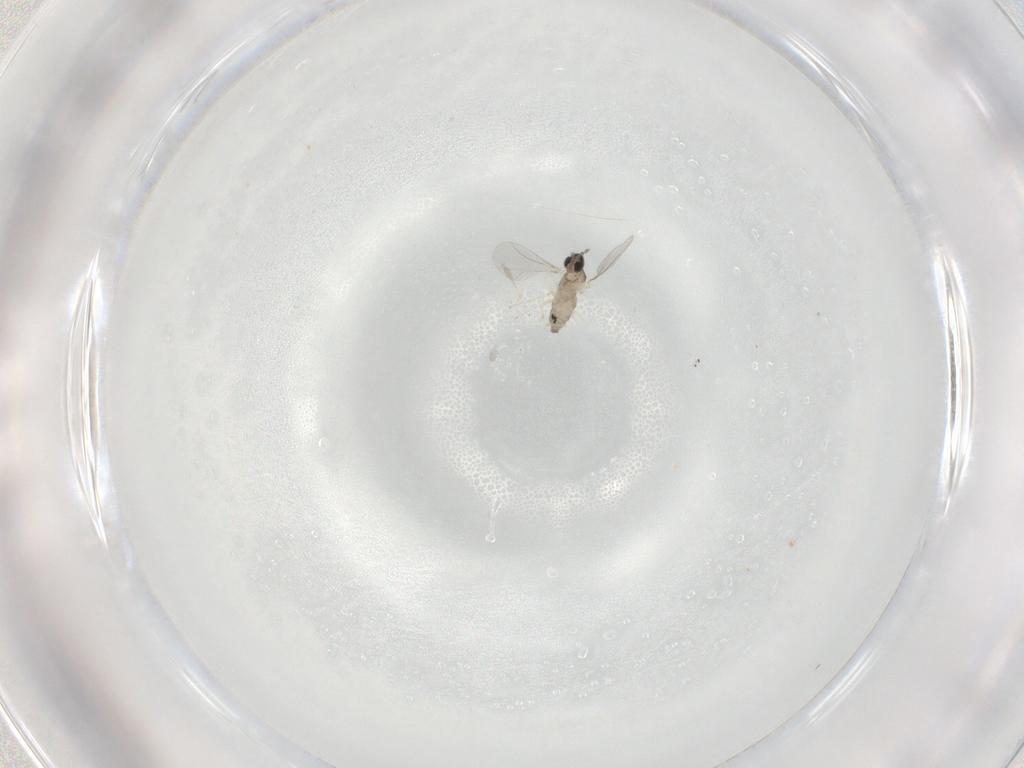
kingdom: Animalia
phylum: Arthropoda
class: Insecta
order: Diptera
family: Cecidomyiidae
